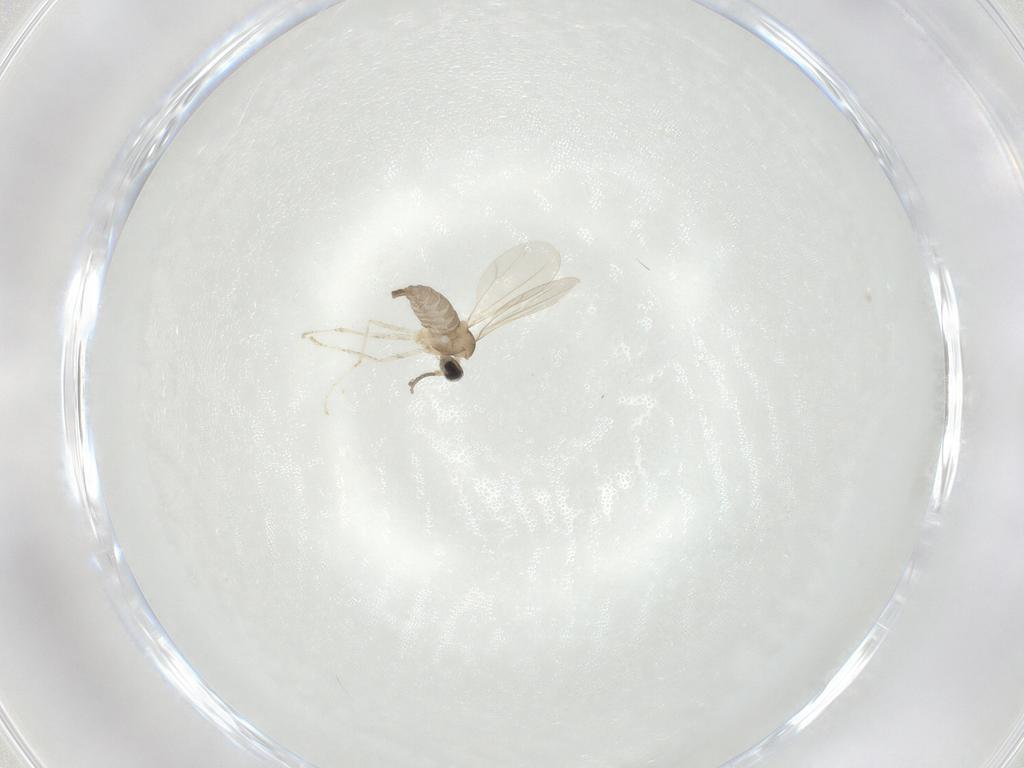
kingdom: Animalia
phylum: Arthropoda
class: Insecta
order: Diptera
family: Cecidomyiidae
